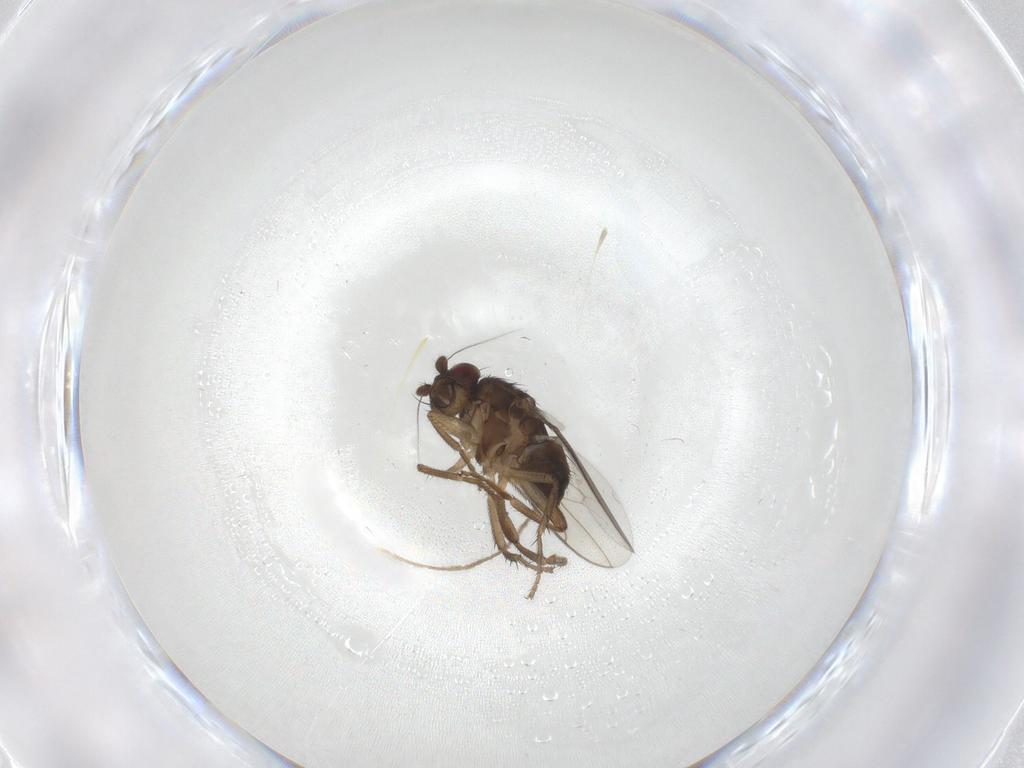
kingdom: Animalia
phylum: Arthropoda
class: Insecta
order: Diptera
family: Sphaeroceridae
